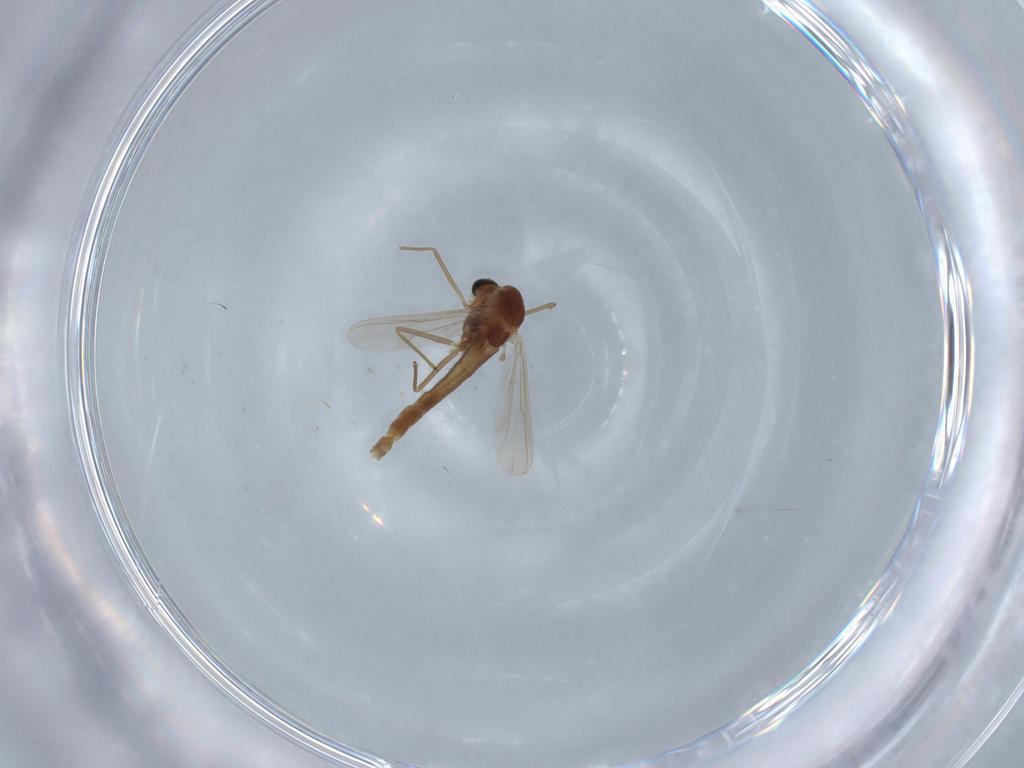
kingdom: Animalia
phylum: Arthropoda
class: Insecta
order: Diptera
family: Chironomidae
